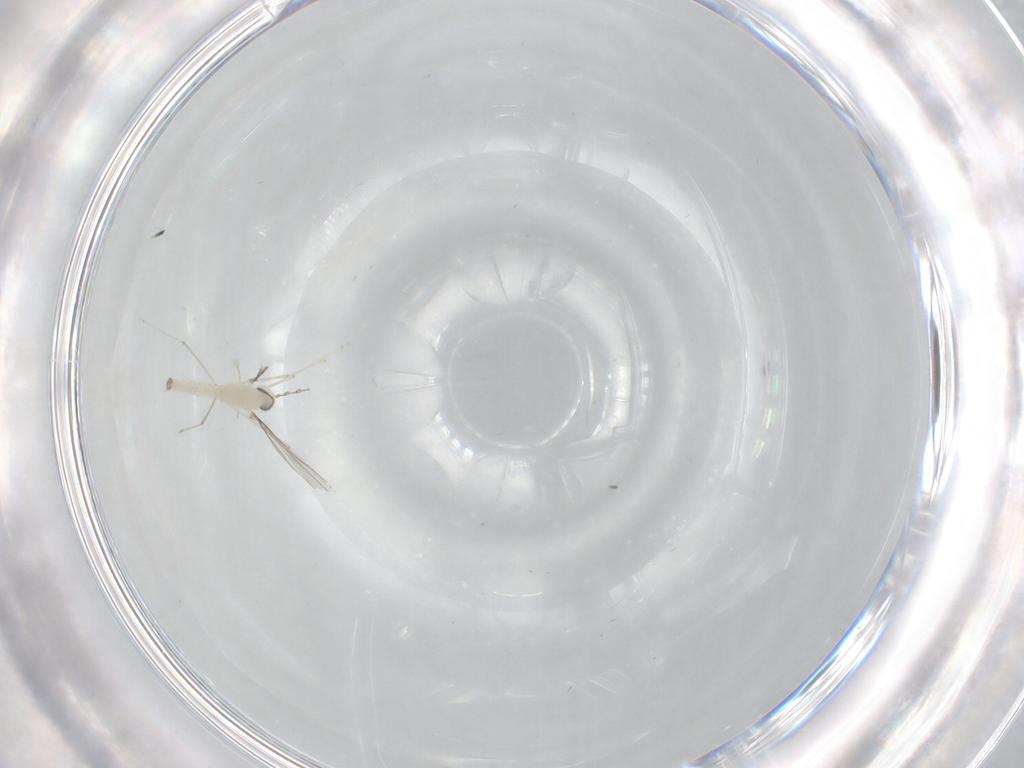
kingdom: Animalia
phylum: Arthropoda
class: Insecta
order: Diptera
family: Cecidomyiidae
